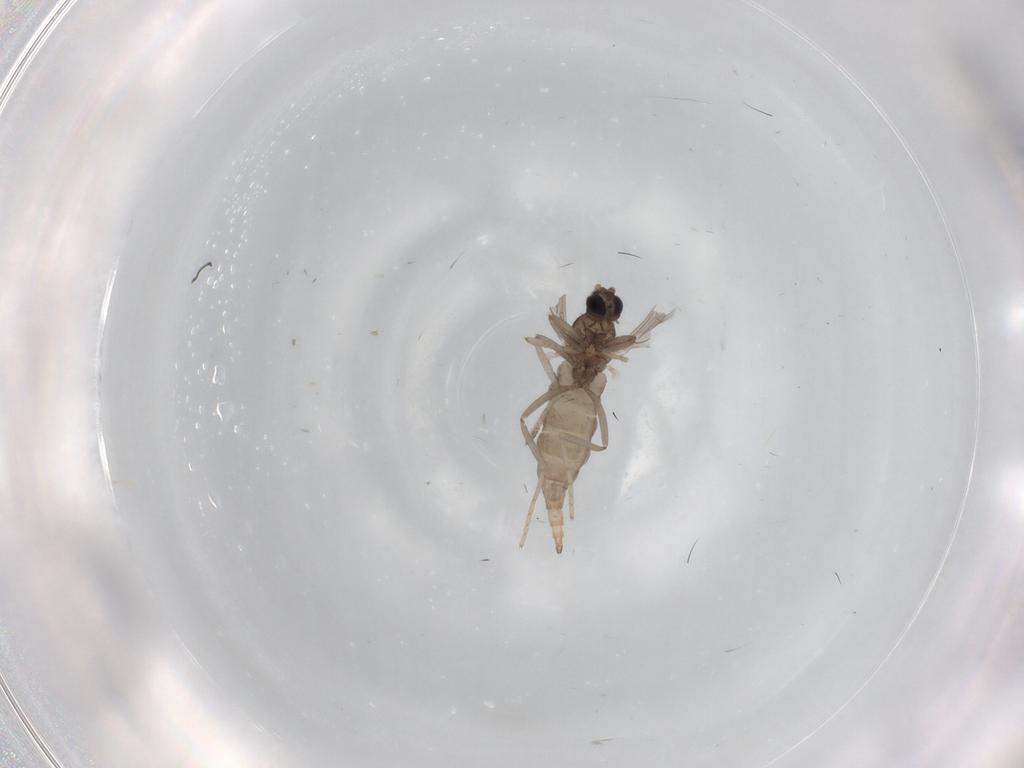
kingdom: Animalia
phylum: Arthropoda
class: Insecta
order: Diptera
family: Cecidomyiidae
